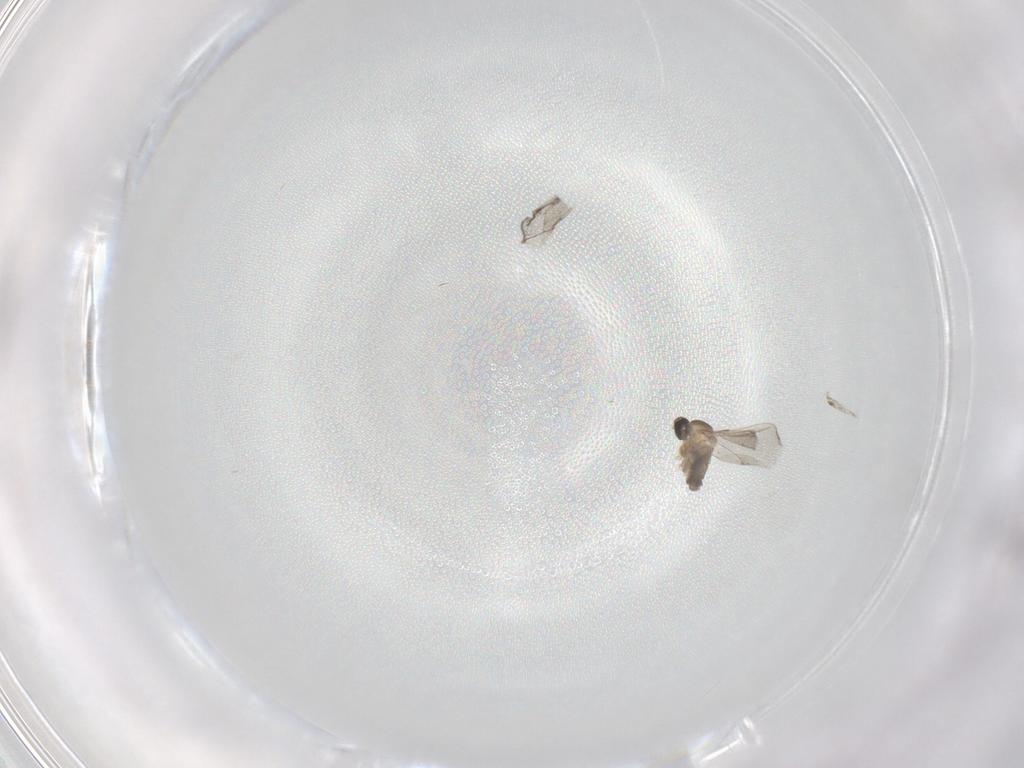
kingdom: Animalia
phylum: Arthropoda
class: Insecta
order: Diptera
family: Cecidomyiidae
